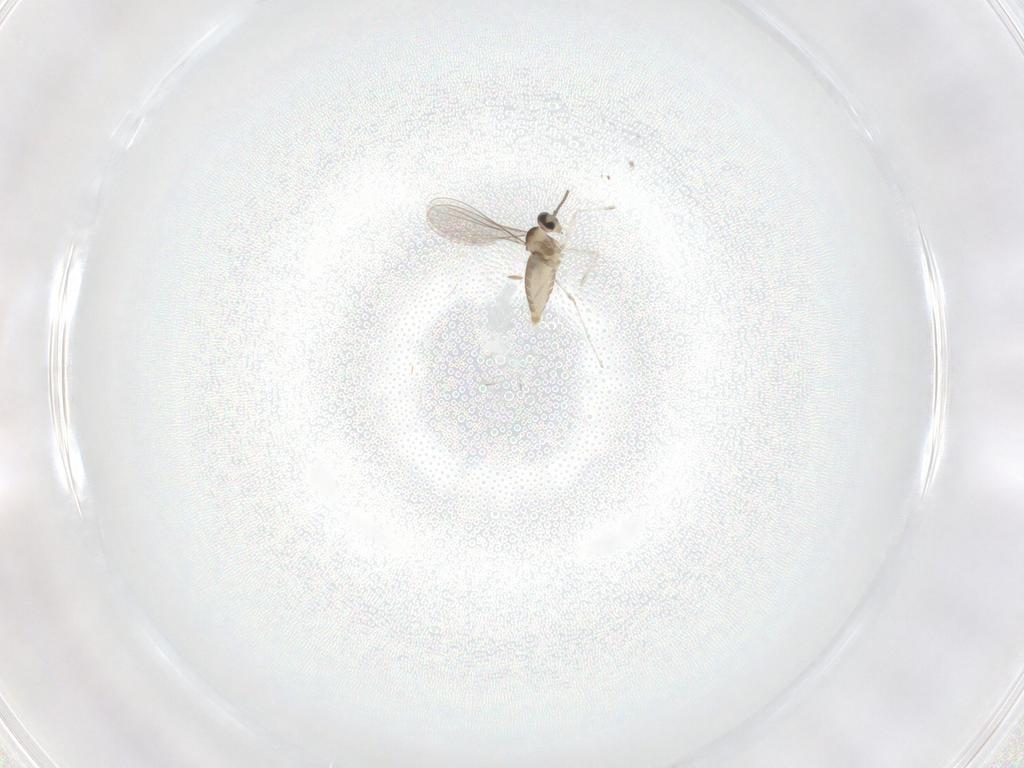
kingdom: Animalia
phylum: Arthropoda
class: Insecta
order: Diptera
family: Cecidomyiidae
